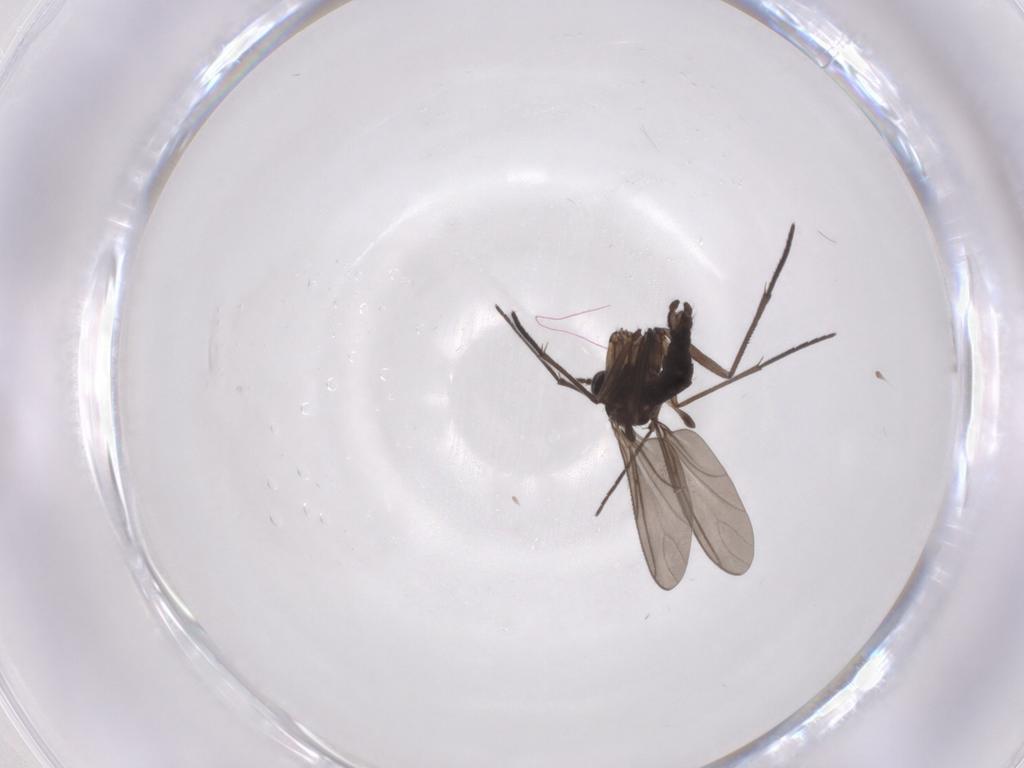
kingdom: Animalia
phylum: Arthropoda
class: Insecta
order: Diptera
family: Sciaridae
